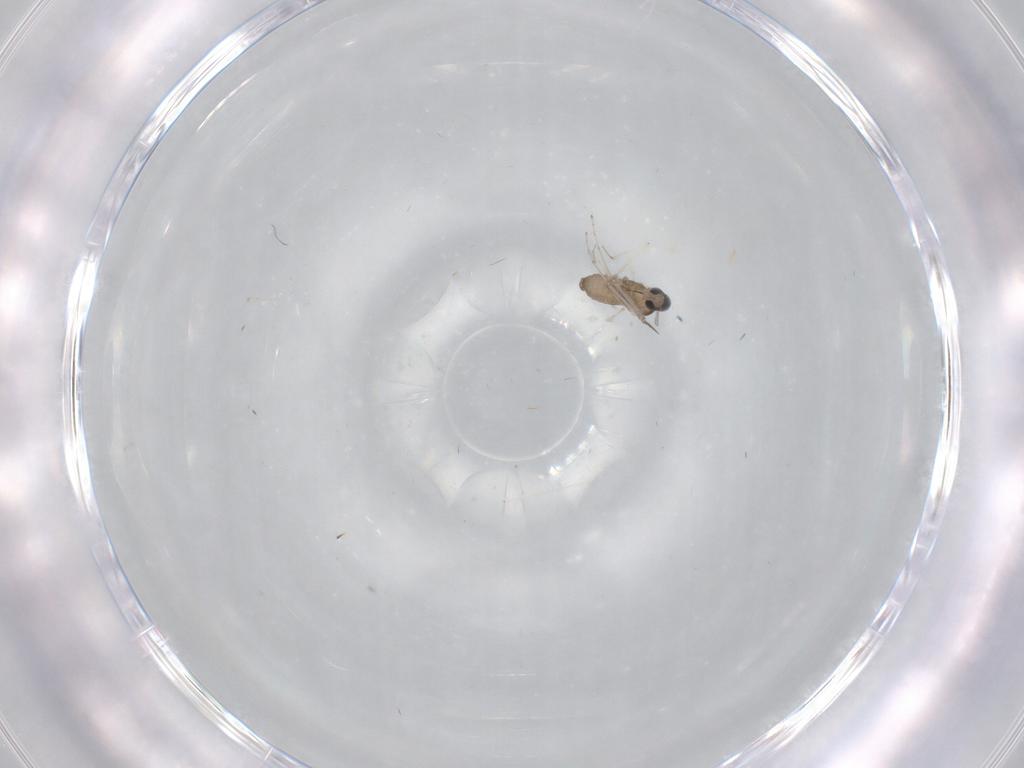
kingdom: Animalia
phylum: Arthropoda
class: Insecta
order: Diptera
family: Cecidomyiidae
